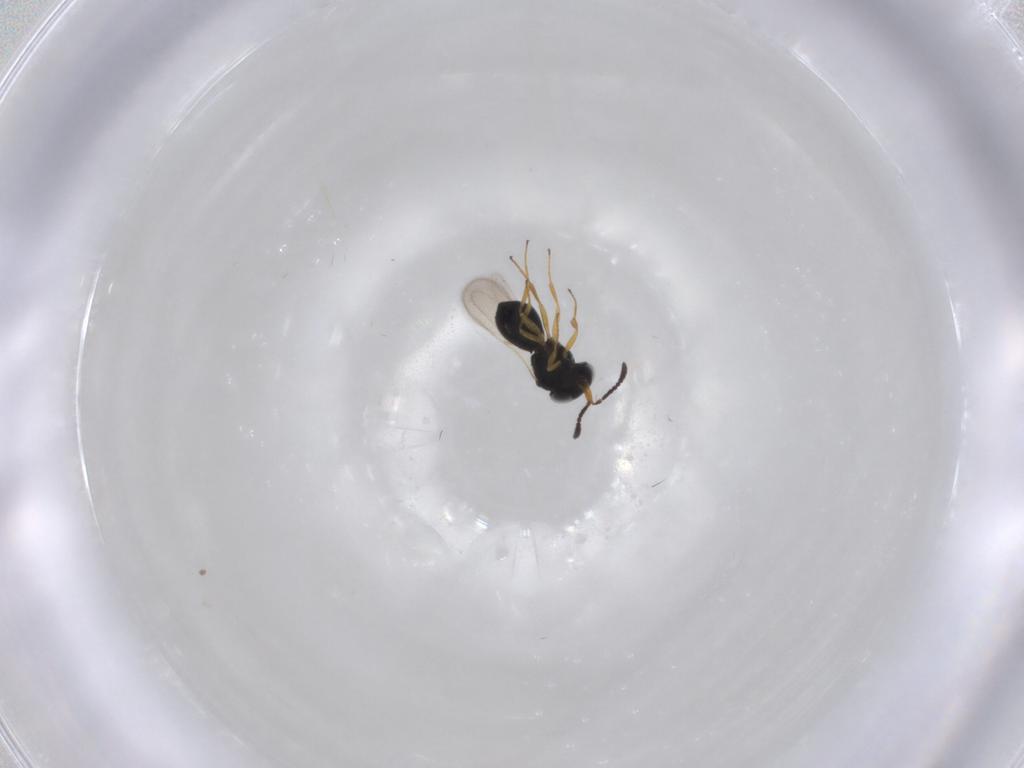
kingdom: Animalia
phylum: Arthropoda
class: Insecta
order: Hymenoptera
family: Scelionidae
